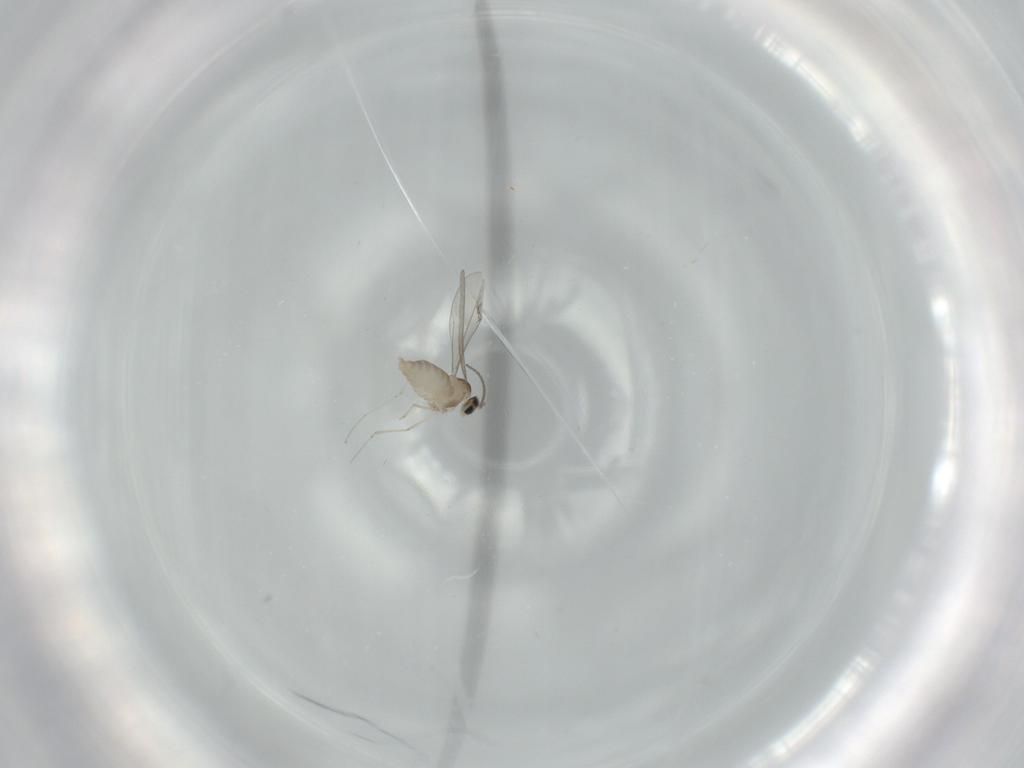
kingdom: Animalia
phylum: Arthropoda
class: Insecta
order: Diptera
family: Cecidomyiidae
